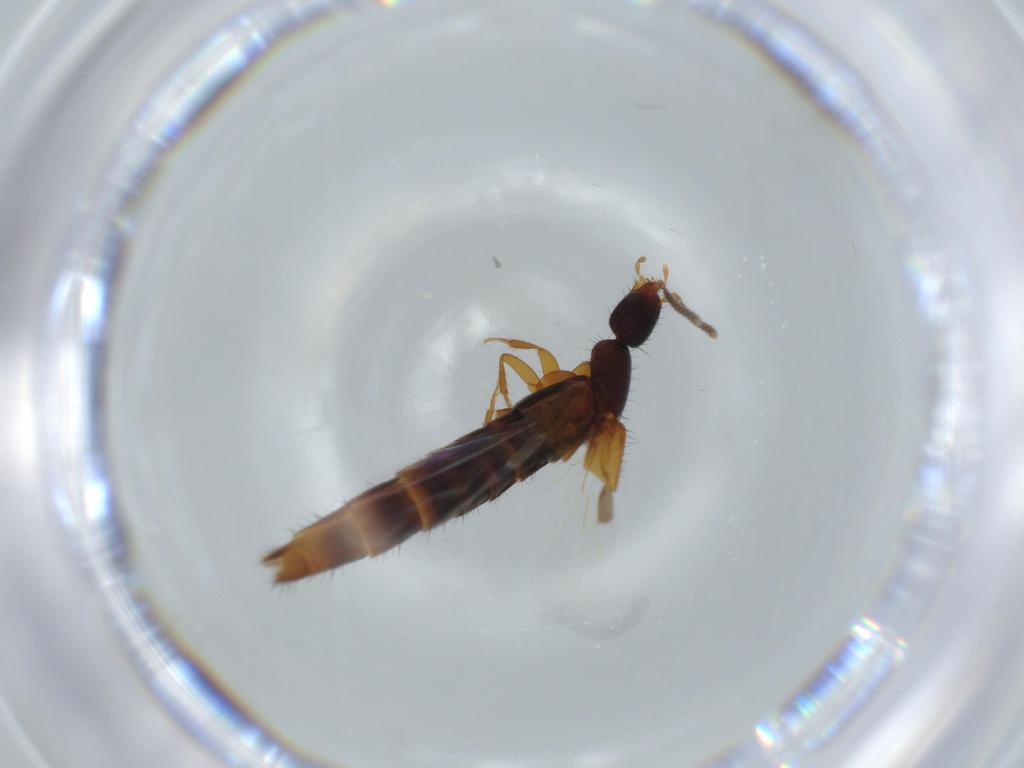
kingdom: Animalia
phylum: Arthropoda
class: Insecta
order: Coleoptera
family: Staphylinidae
